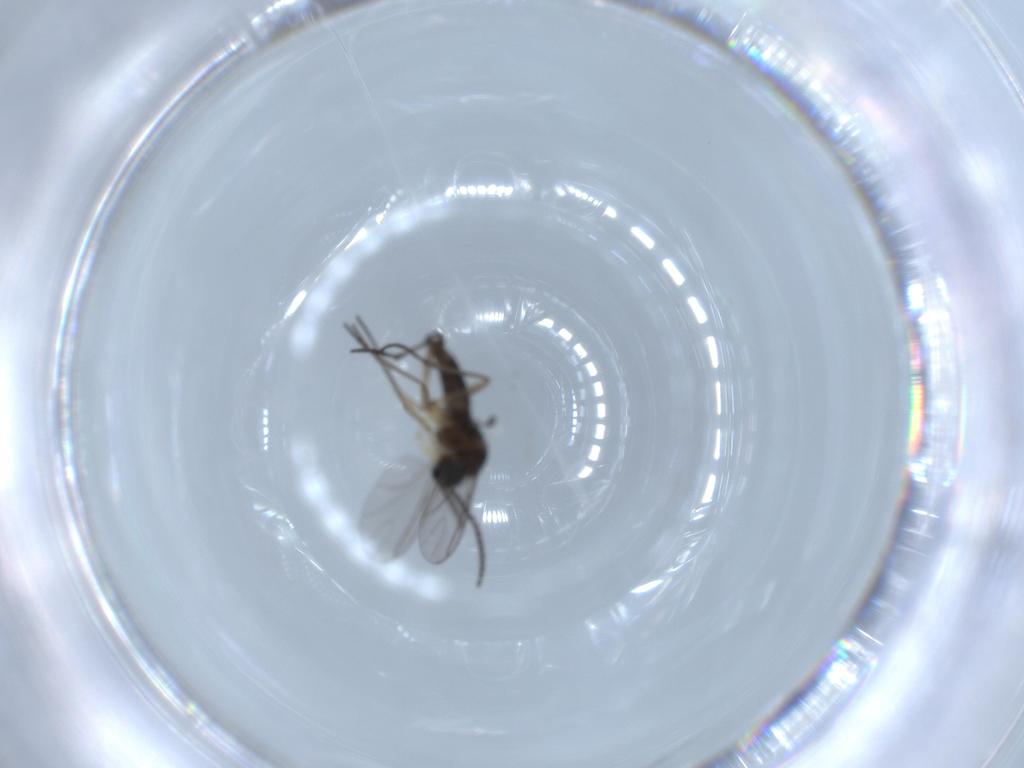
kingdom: Animalia
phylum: Arthropoda
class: Insecta
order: Diptera
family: Sciaridae
